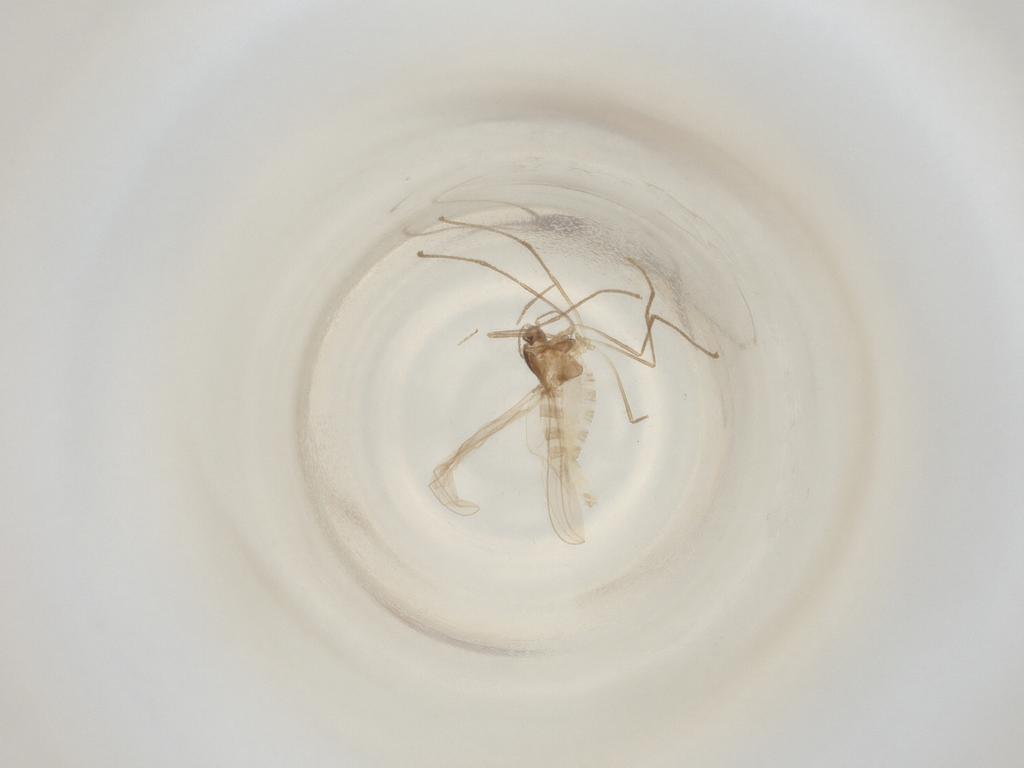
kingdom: Animalia
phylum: Arthropoda
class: Insecta
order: Diptera
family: Cecidomyiidae
